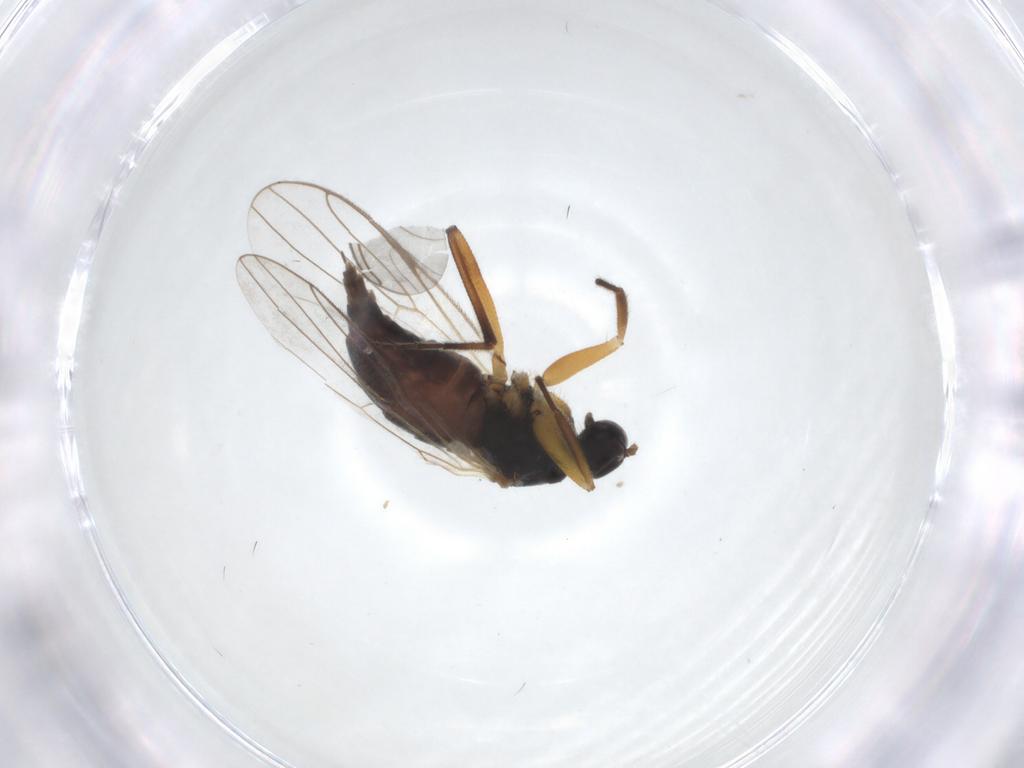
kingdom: Animalia
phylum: Arthropoda
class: Insecta
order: Diptera
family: Hybotidae
